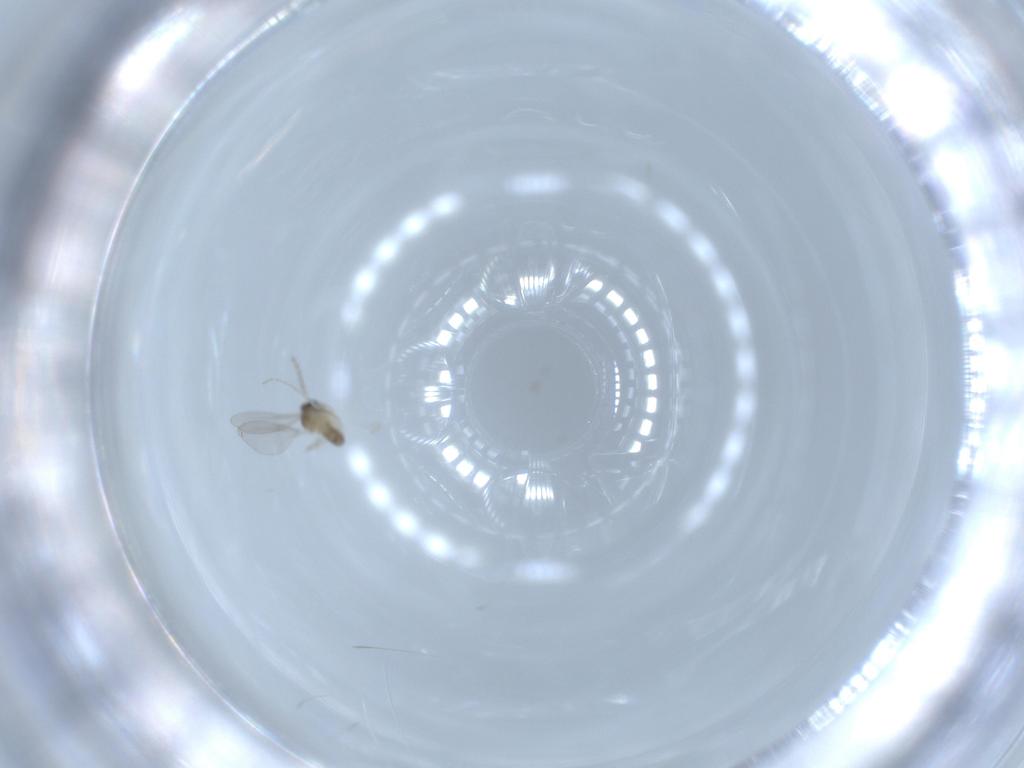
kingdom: Animalia
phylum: Arthropoda
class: Insecta
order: Diptera
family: Cecidomyiidae
